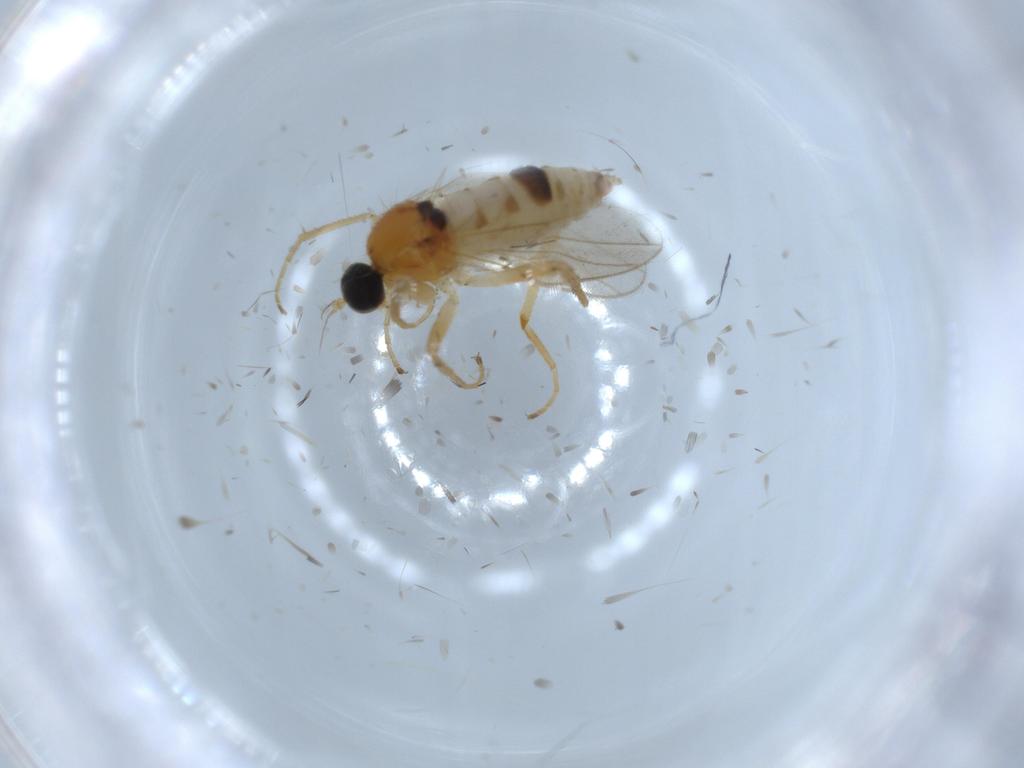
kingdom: Animalia
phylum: Arthropoda
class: Insecta
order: Diptera
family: Hybotidae
